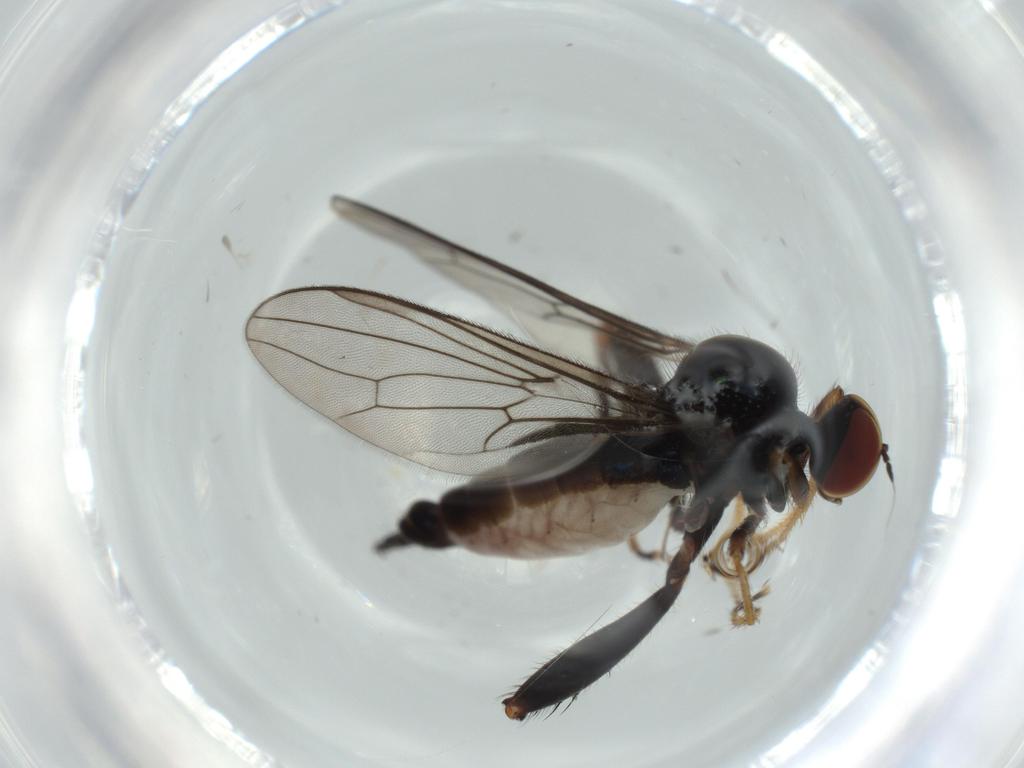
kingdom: Animalia
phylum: Arthropoda
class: Insecta
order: Diptera
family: Hybotidae
